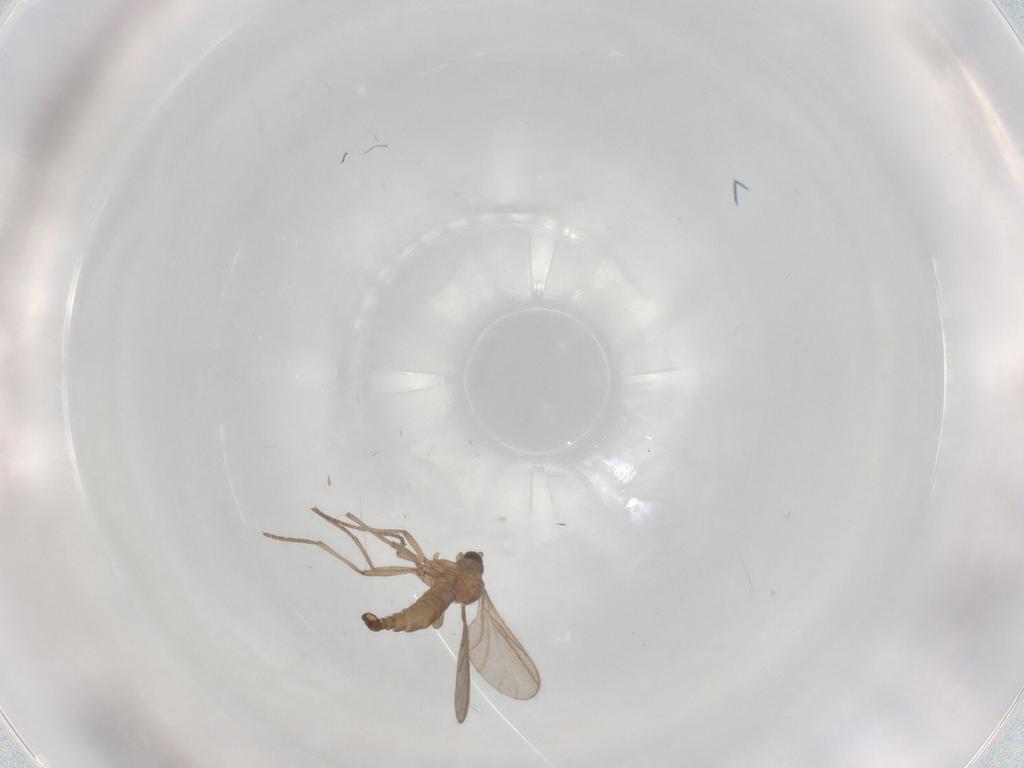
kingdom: Animalia
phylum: Arthropoda
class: Insecta
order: Diptera
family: Sciaridae
